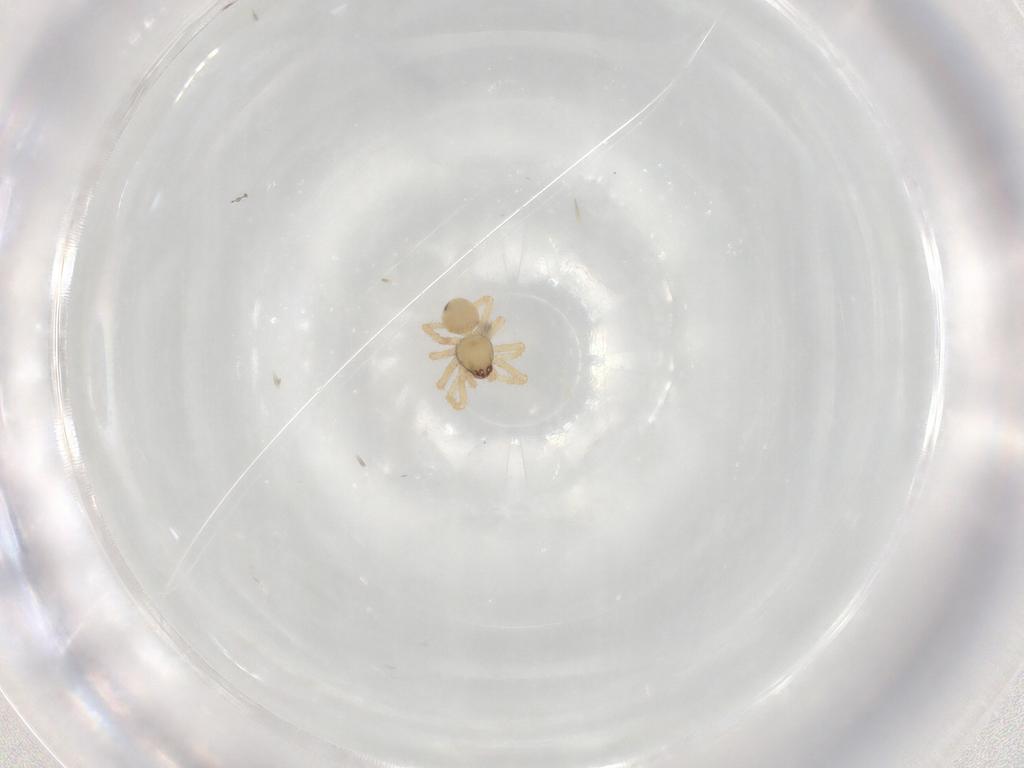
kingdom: Animalia
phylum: Arthropoda
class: Arachnida
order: Araneae
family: Theridiidae
